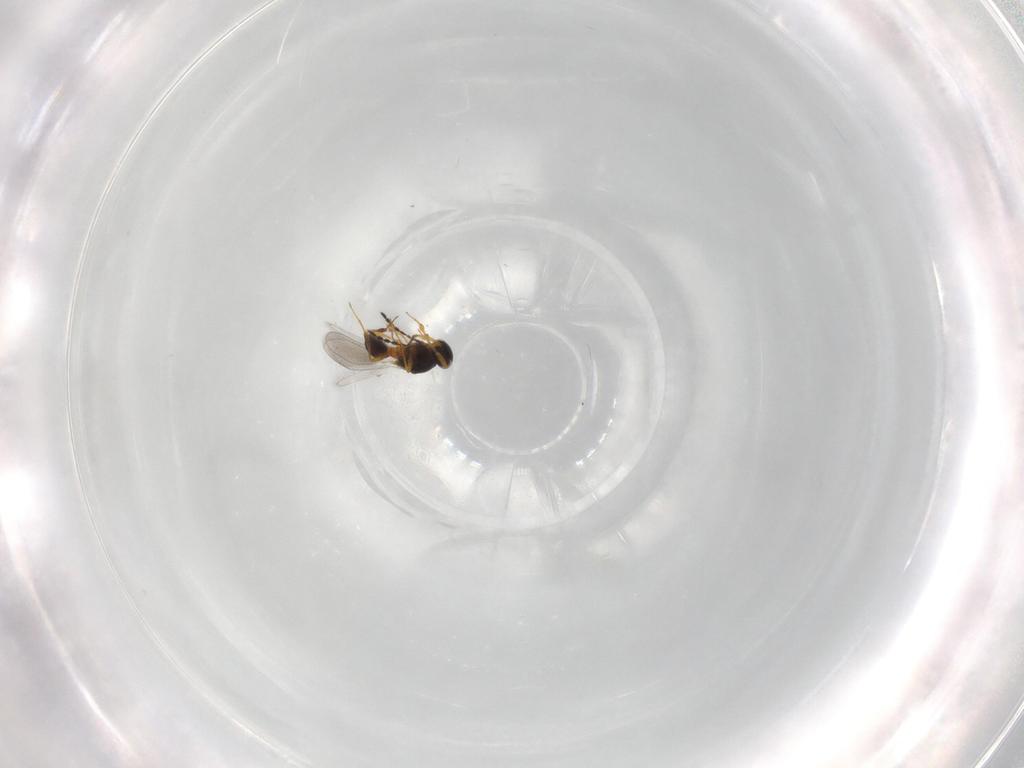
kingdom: Animalia
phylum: Arthropoda
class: Insecta
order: Hymenoptera
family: Platygastridae
